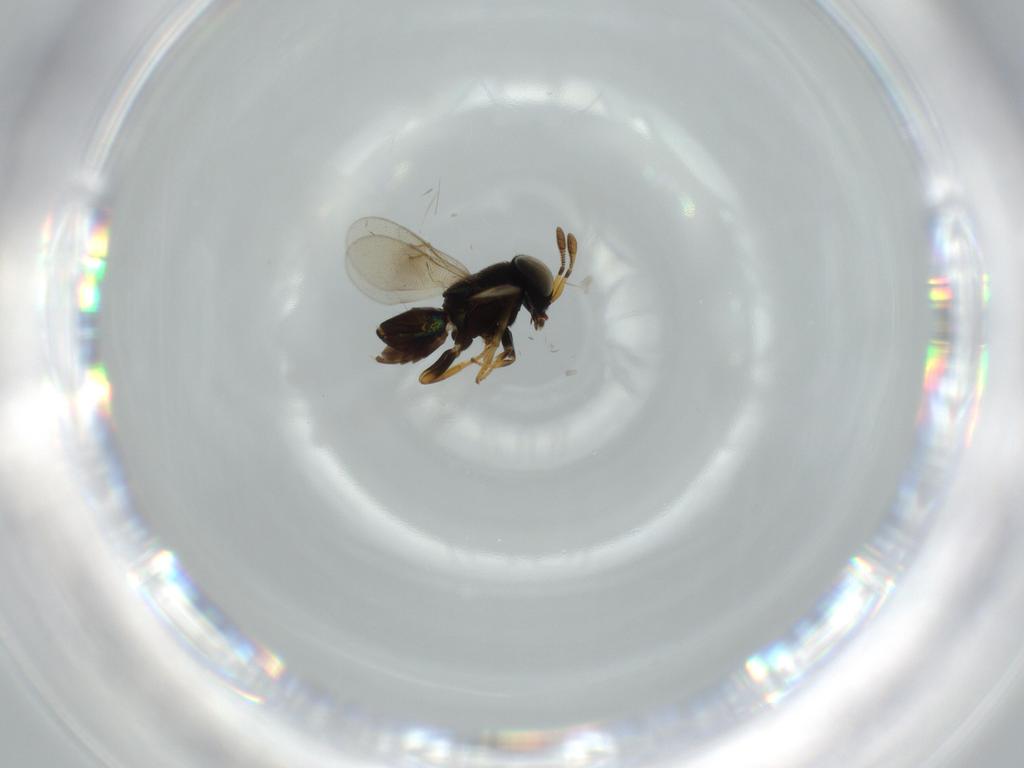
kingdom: Animalia
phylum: Arthropoda
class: Insecta
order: Hymenoptera
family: Encyrtidae
